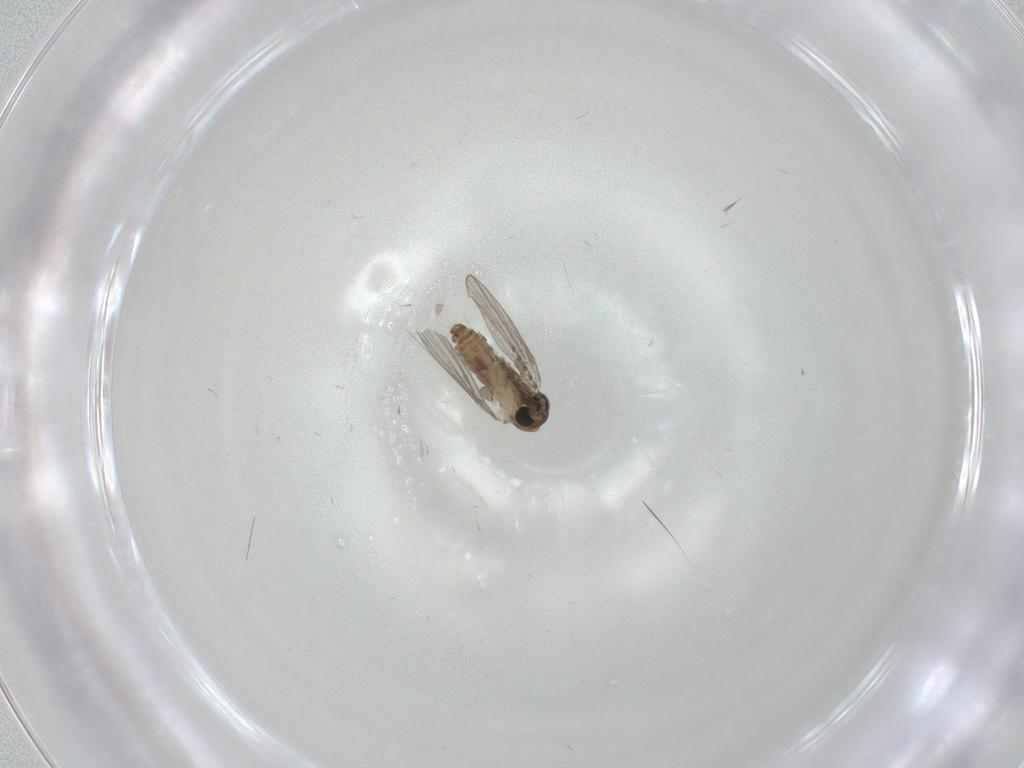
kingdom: Animalia
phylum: Arthropoda
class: Insecta
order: Diptera
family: Psychodidae
